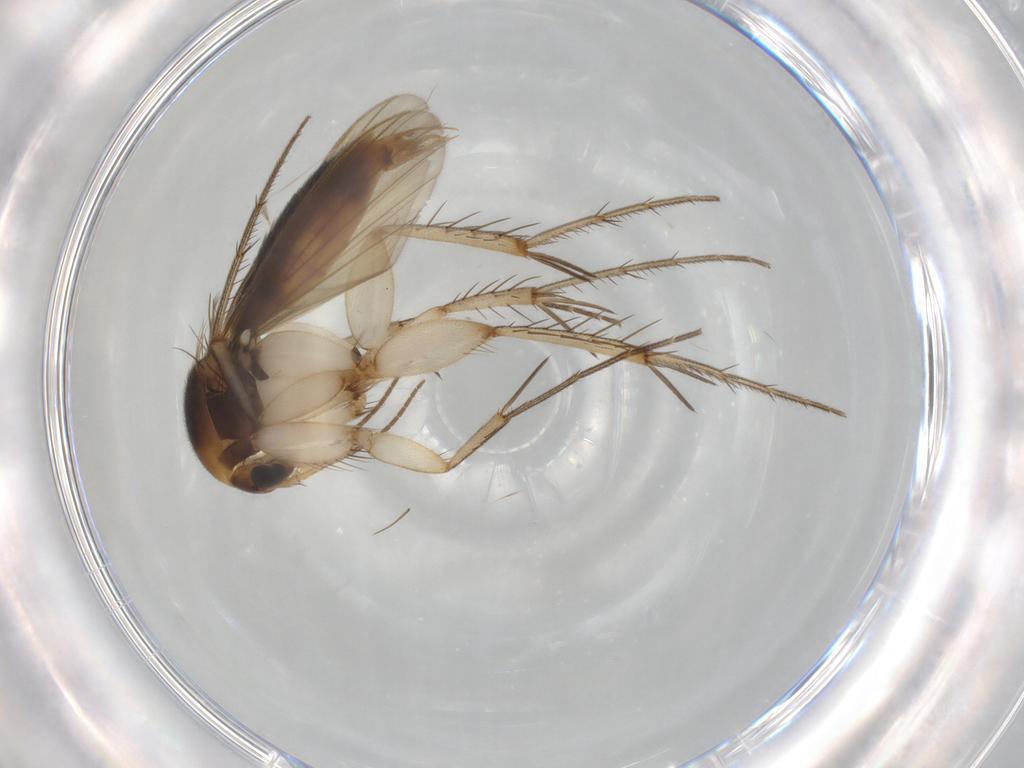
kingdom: Animalia
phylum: Arthropoda
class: Insecta
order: Diptera
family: Mycetophilidae
